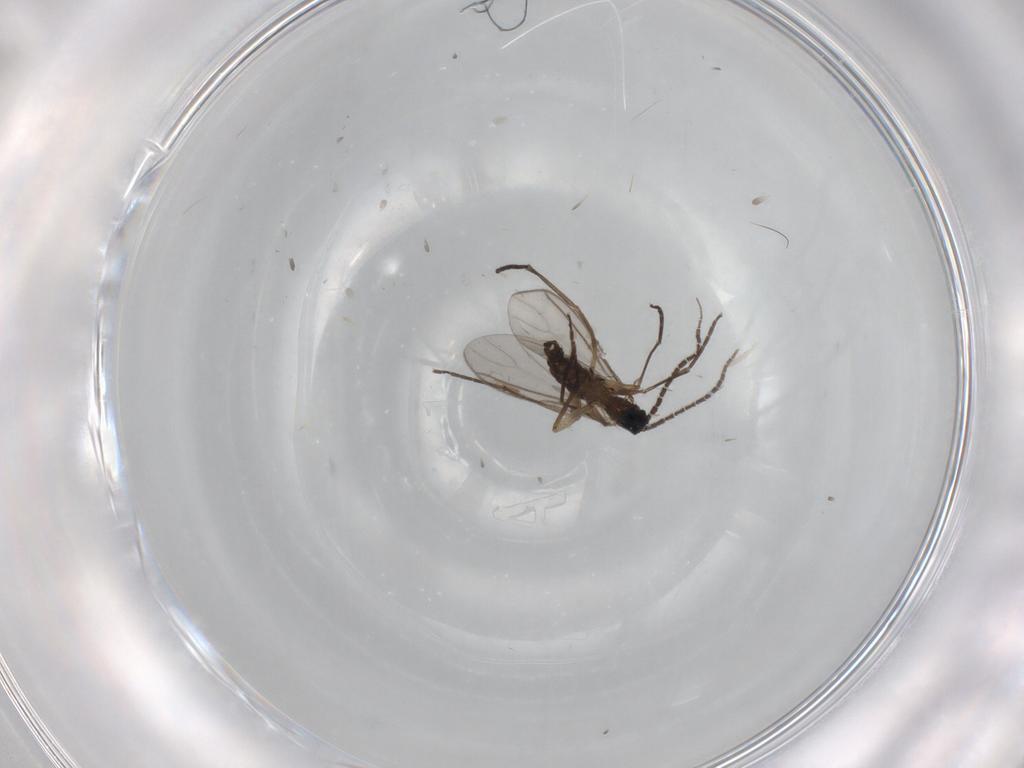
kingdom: Animalia
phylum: Arthropoda
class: Insecta
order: Diptera
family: Sciaridae
